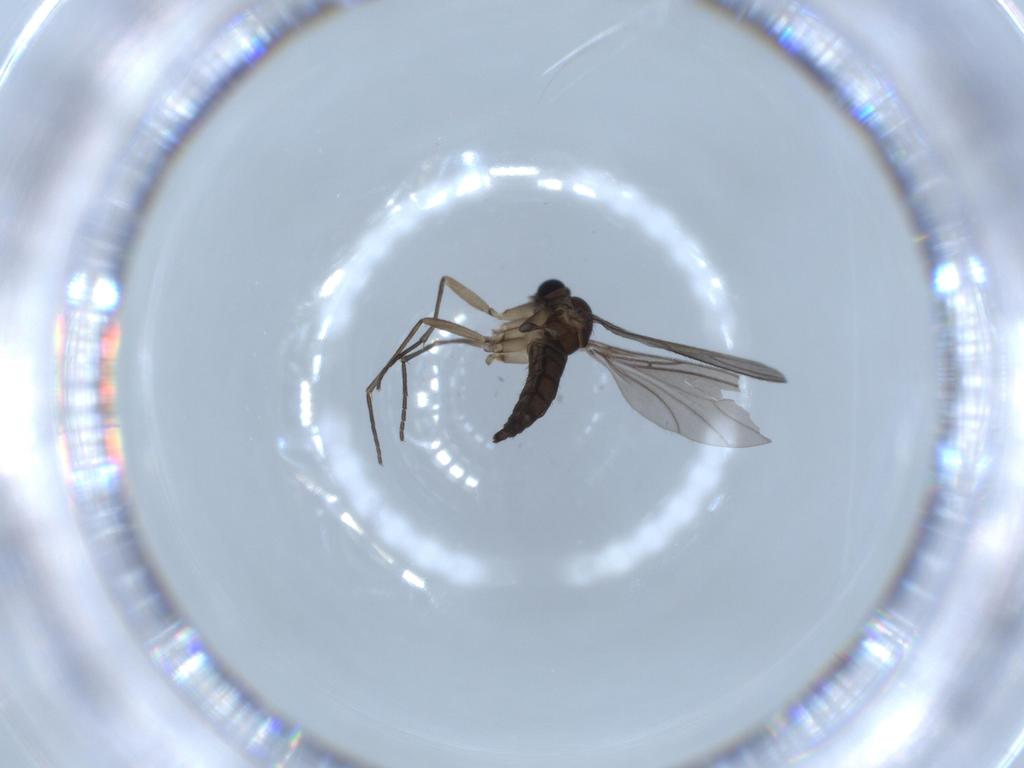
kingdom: Animalia
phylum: Arthropoda
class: Insecta
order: Diptera
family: Sciaridae
